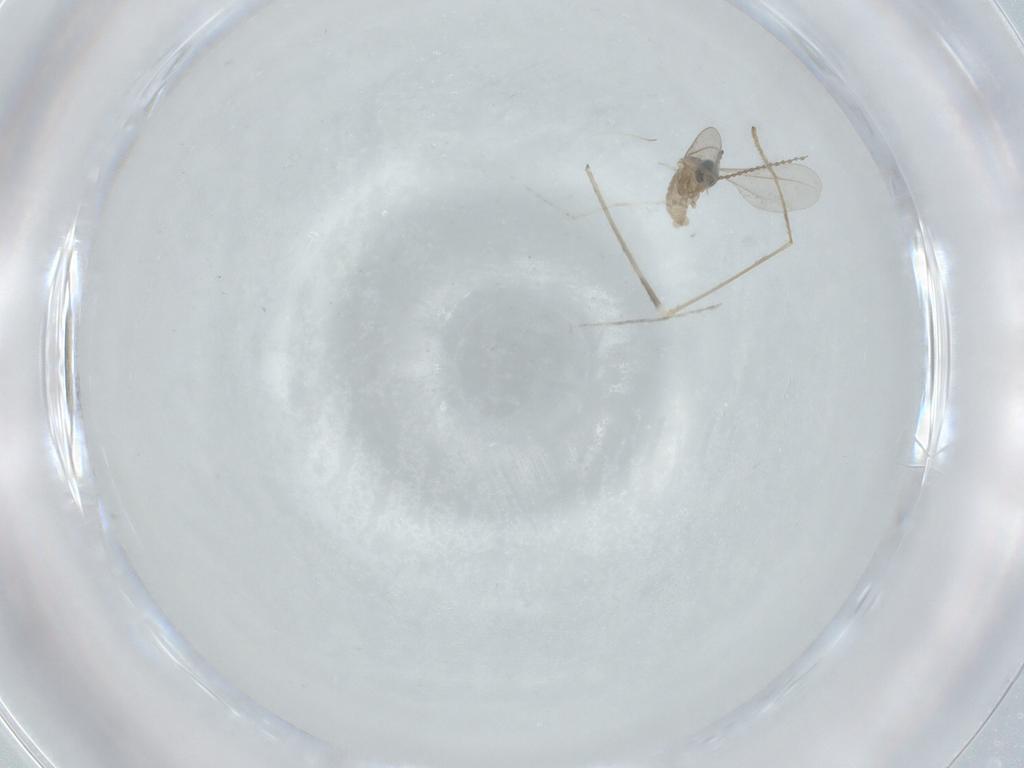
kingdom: Animalia
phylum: Arthropoda
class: Insecta
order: Diptera
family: Cecidomyiidae
